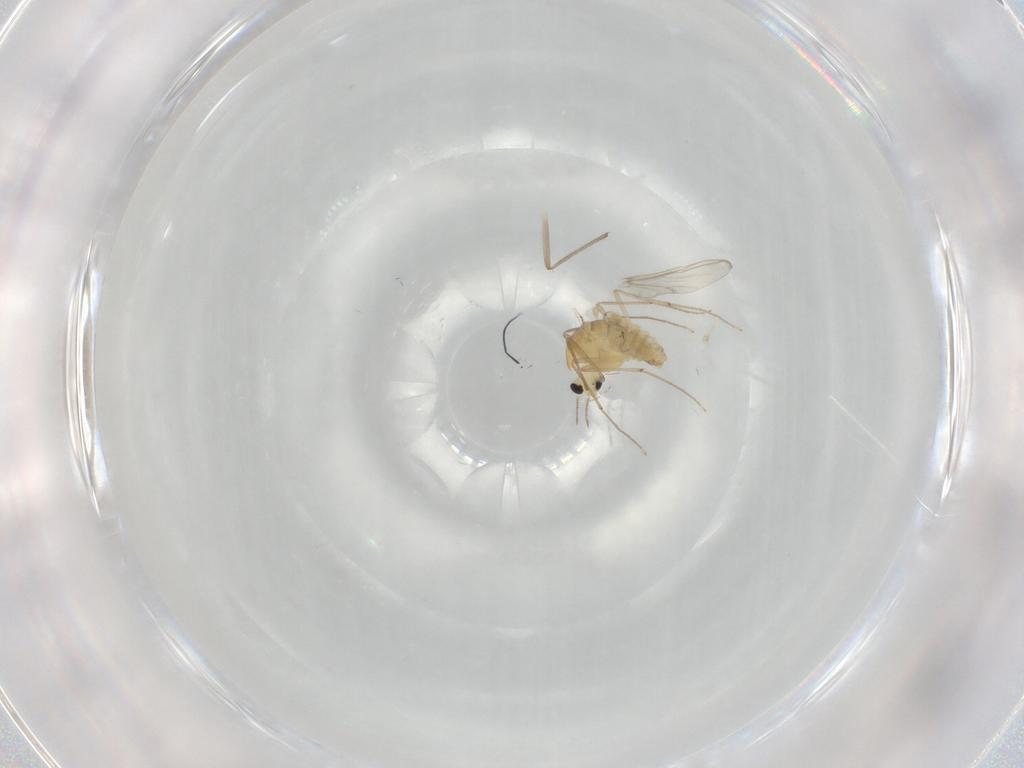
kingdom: Animalia
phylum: Arthropoda
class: Insecta
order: Diptera
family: Chironomidae
